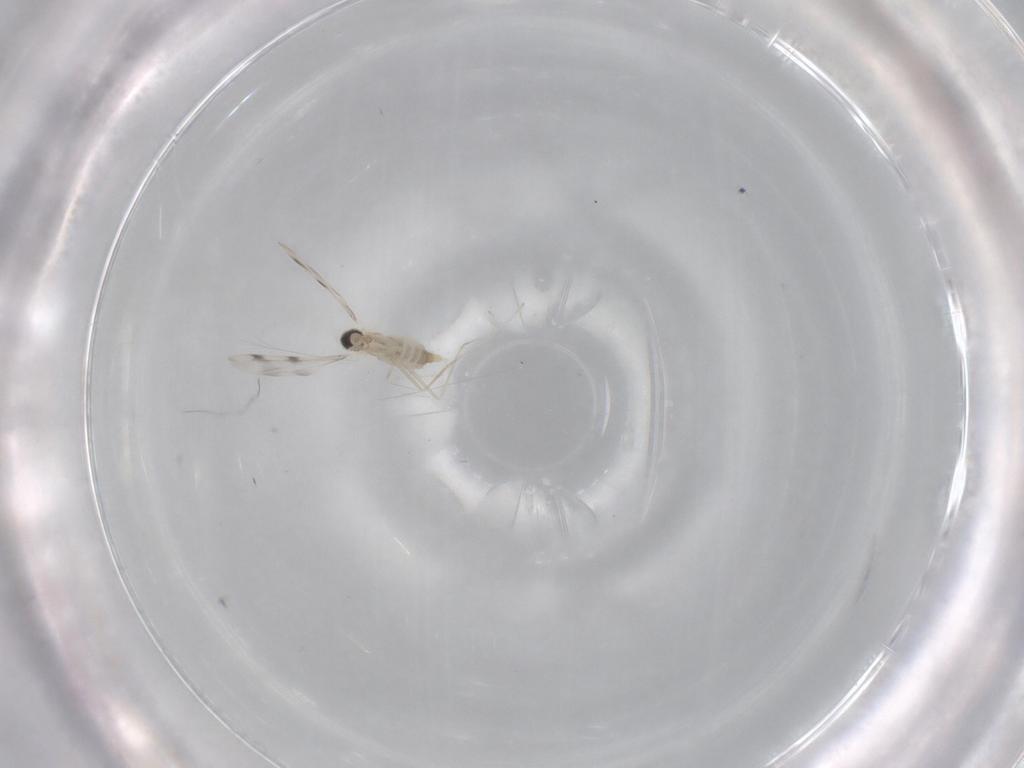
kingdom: Animalia
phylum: Arthropoda
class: Insecta
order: Diptera
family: Cecidomyiidae
